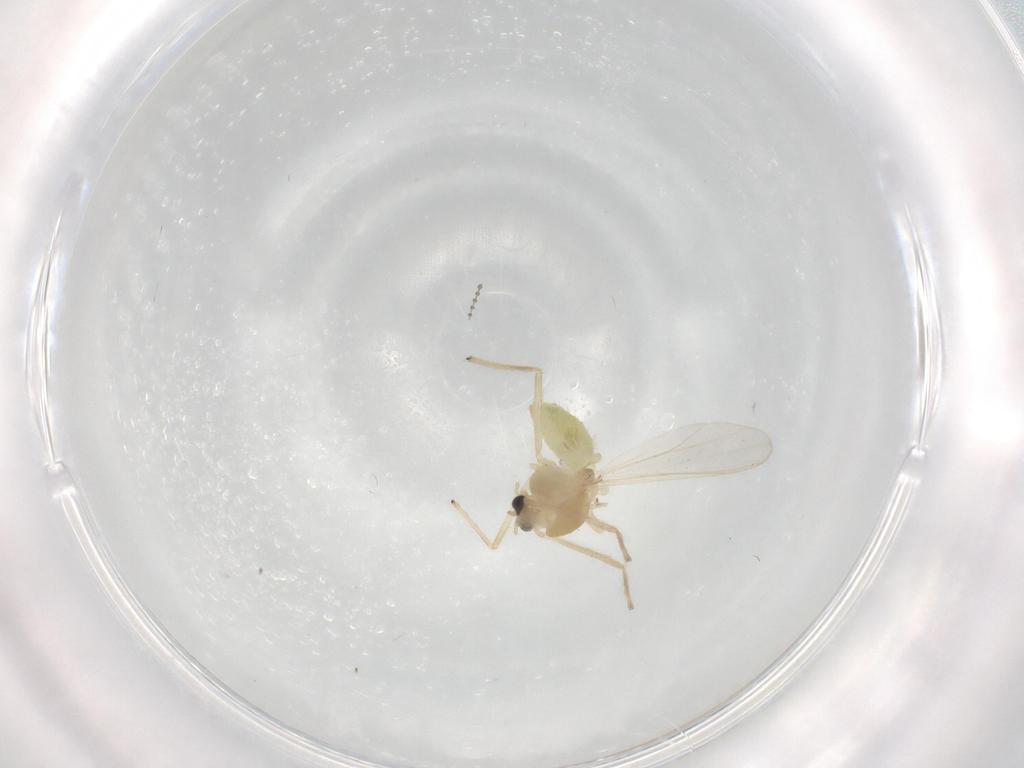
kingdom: Animalia
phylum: Arthropoda
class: Insecta
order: Diptera
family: Chironomidae
